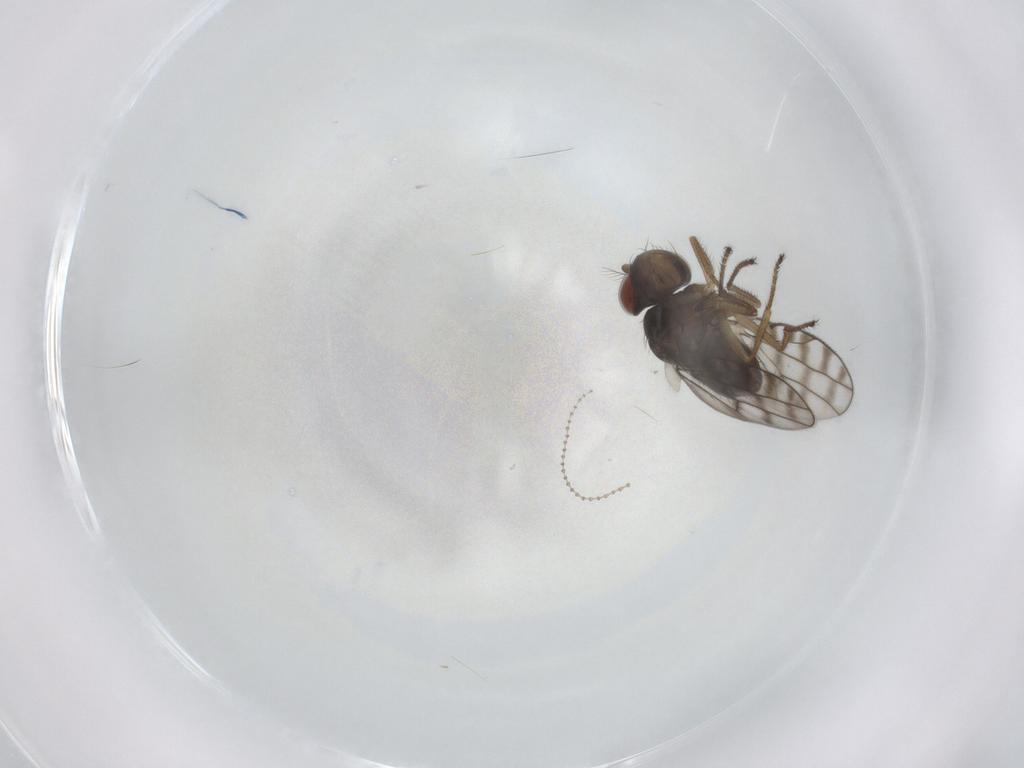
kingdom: Animalia
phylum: Arthropoda
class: Insecta
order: Diptera
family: Ephydridae
